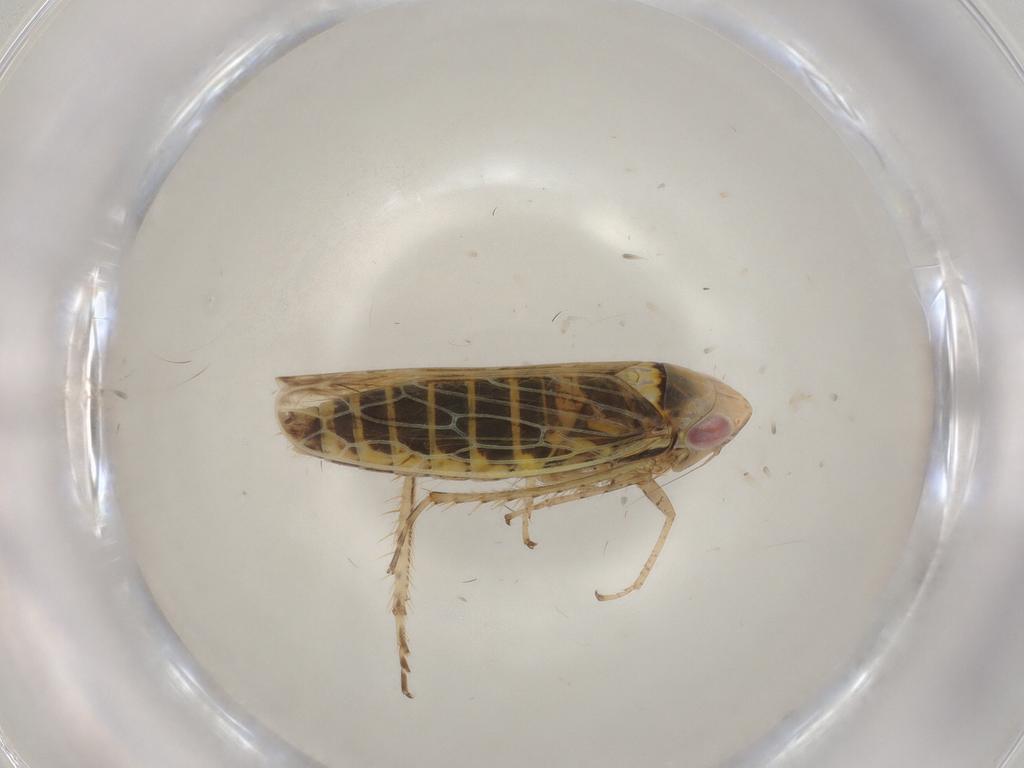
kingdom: Animalia
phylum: Arthropoda
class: Insecta
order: Hemiptera
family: Cicadellidae
